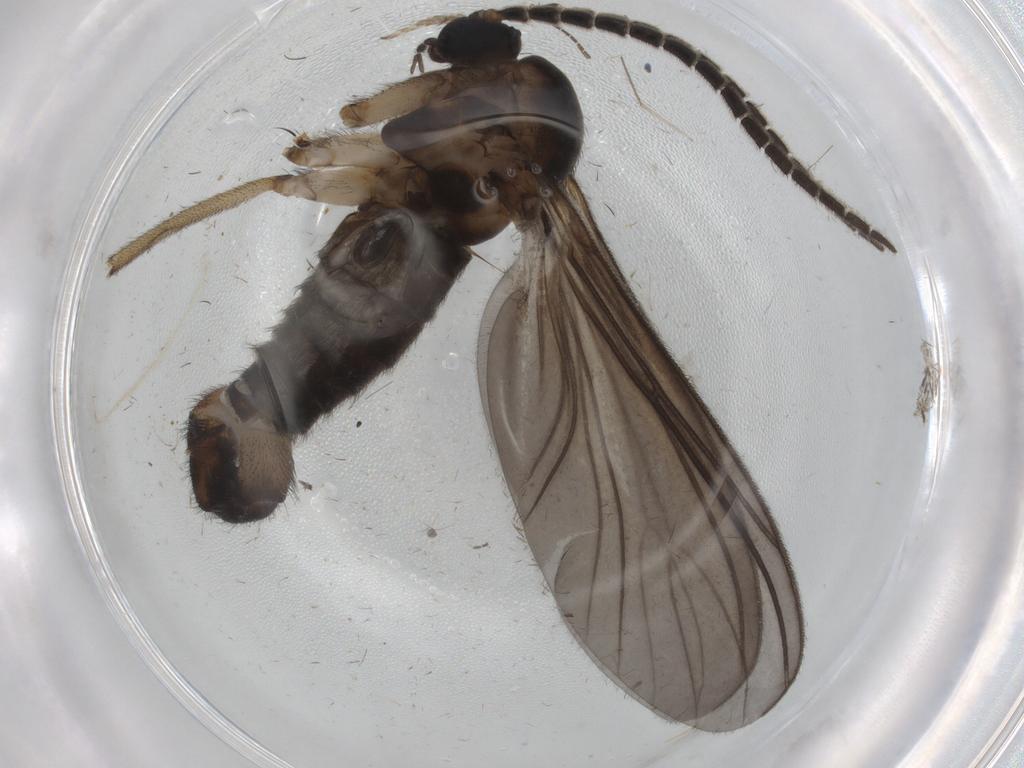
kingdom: Animalia
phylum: Arthropoda
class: Insecta
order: Diptera
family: Sciaridae
